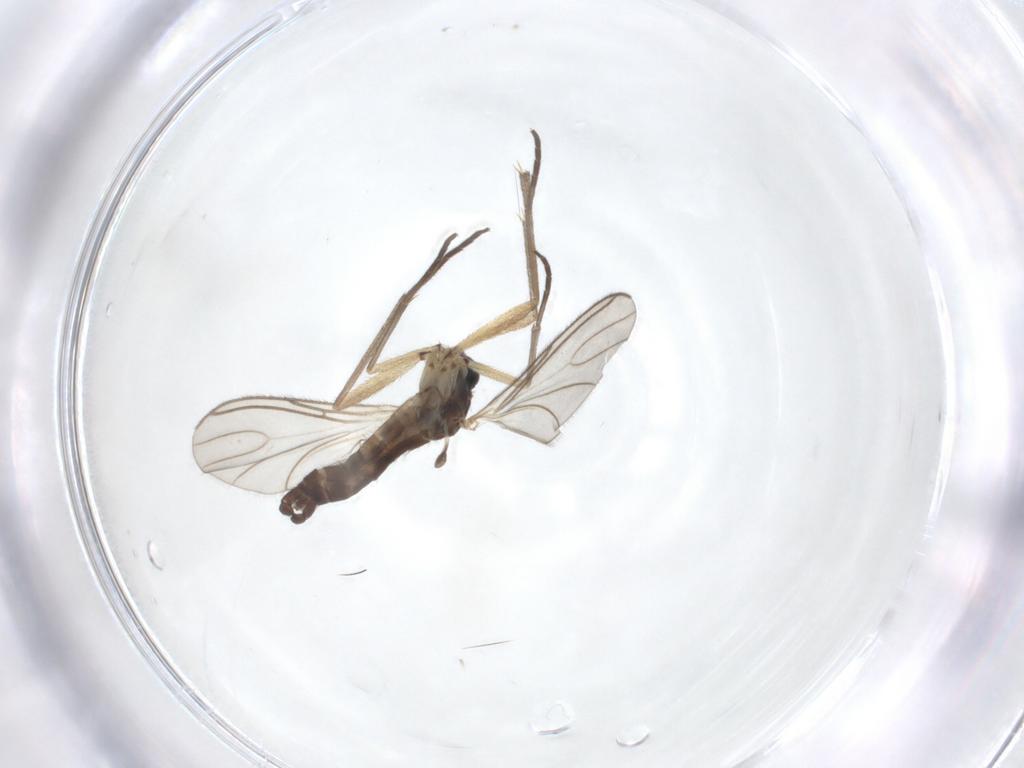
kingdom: Animalia
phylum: Arthropoda
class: Insecta
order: Diptera
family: Sciaridae
